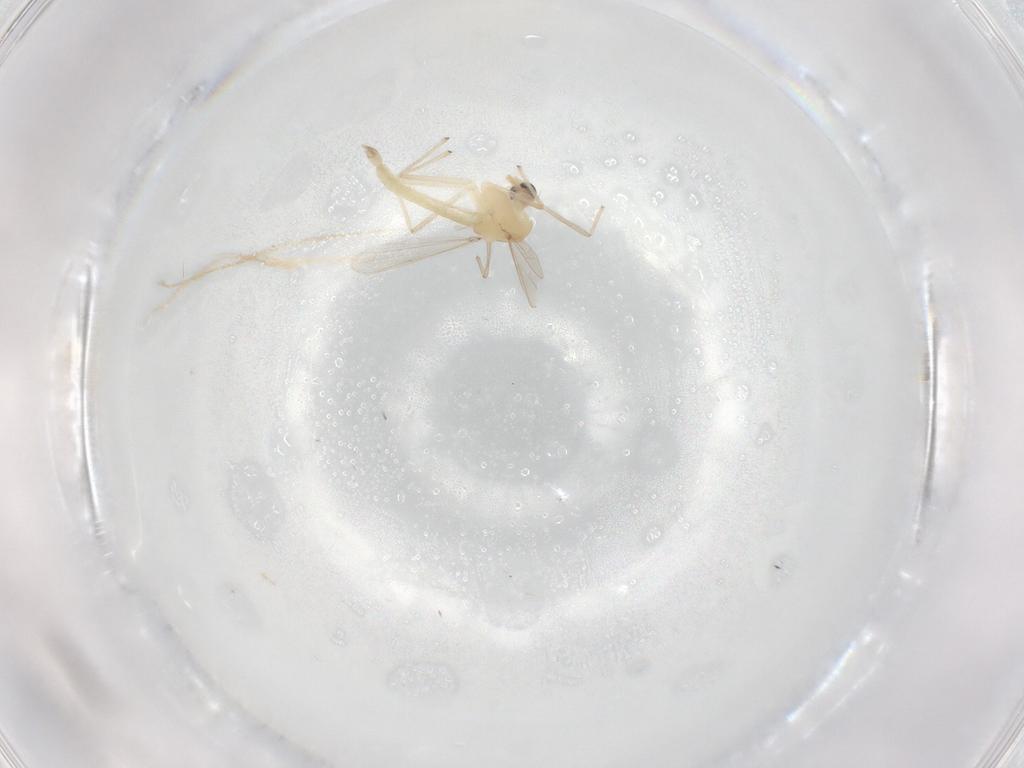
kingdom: Animalia
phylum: Arthropoda
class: Insecta
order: Diptera
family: Chironomidae
